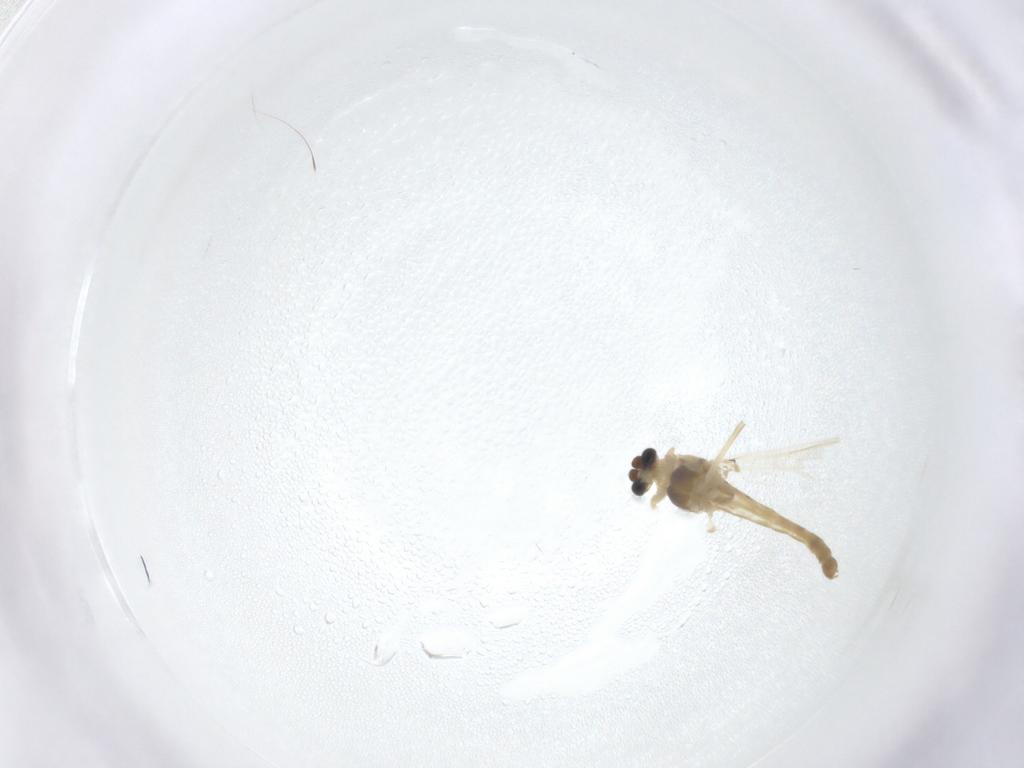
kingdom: Animalia
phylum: Arthropoda
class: Insecta
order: Diptera
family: Chironomidae
